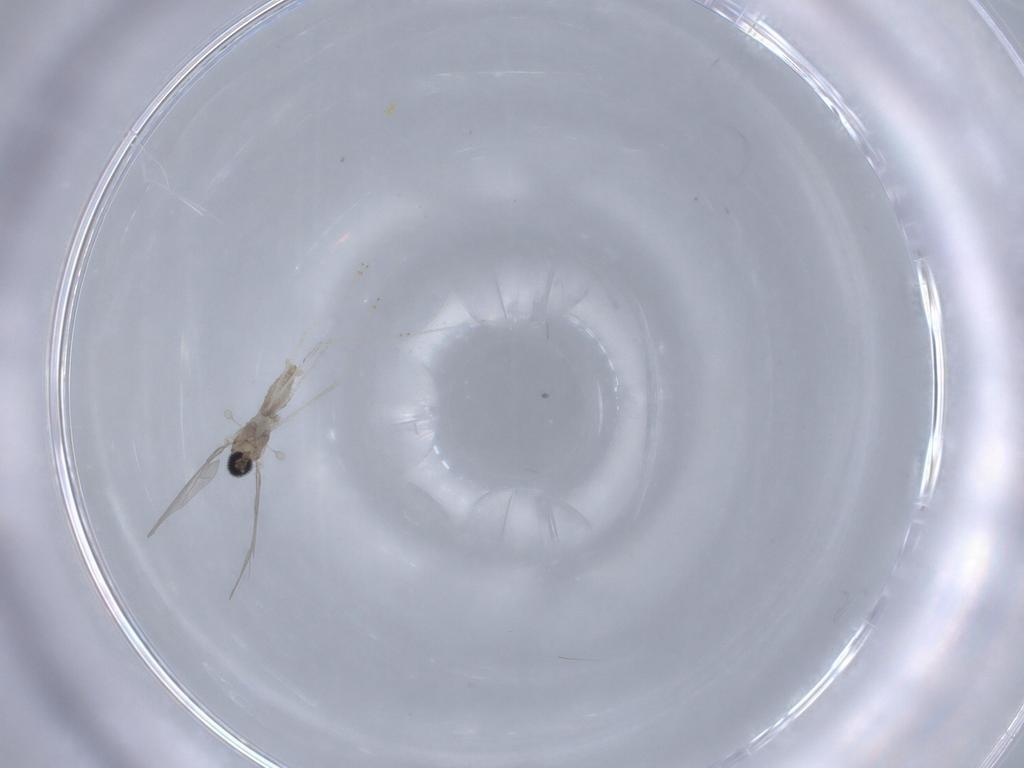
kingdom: Animalia
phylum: Arthropoda
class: Insecta
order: Diptera
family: Cecidomyiidae
